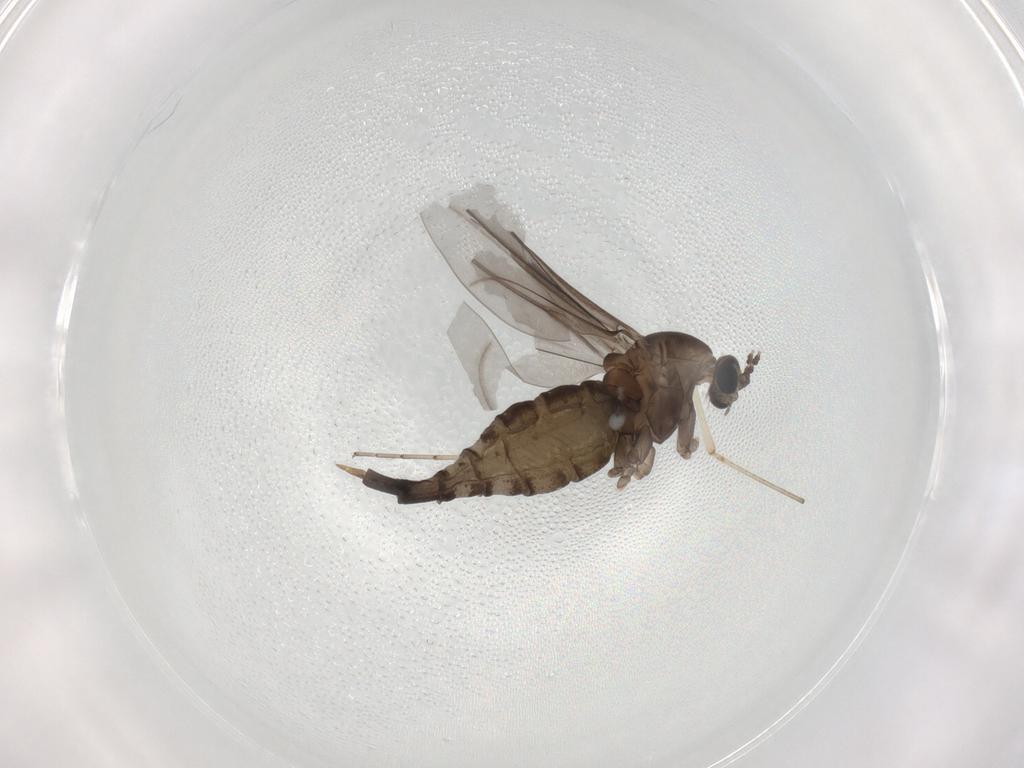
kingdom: Animalia
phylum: Arthropoda
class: Insecta
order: Diptera
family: Cecidomyiidae
